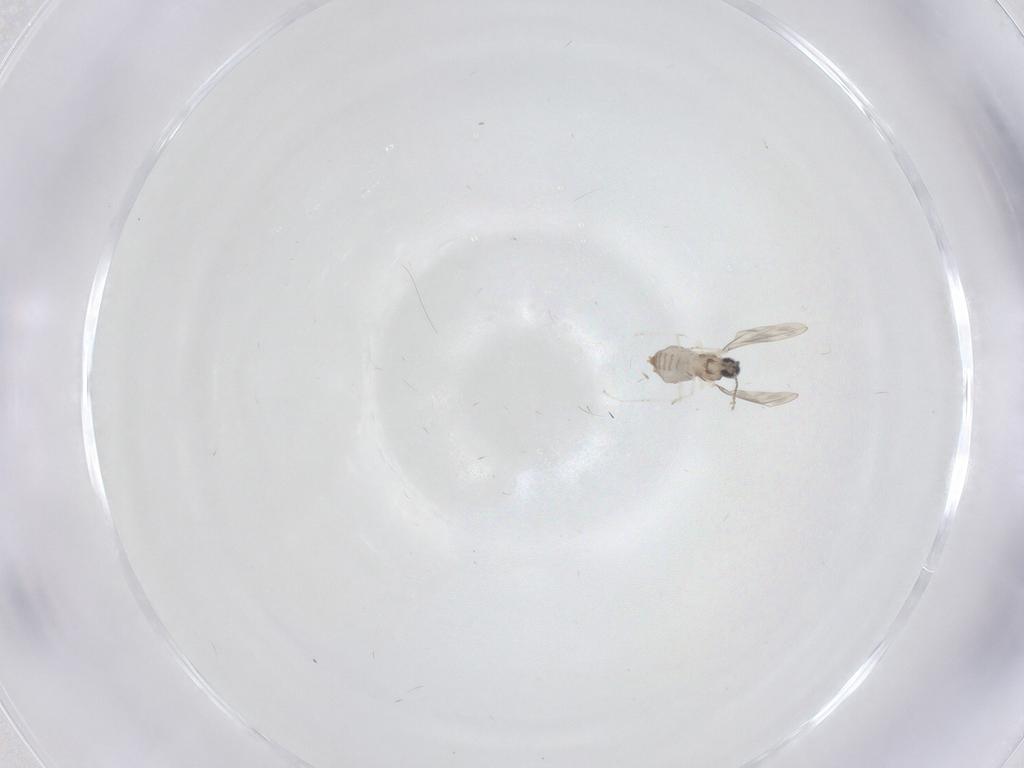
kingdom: Animalia
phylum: Arthropoda
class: Insecta
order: Diptera
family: Cecidomyiidae
